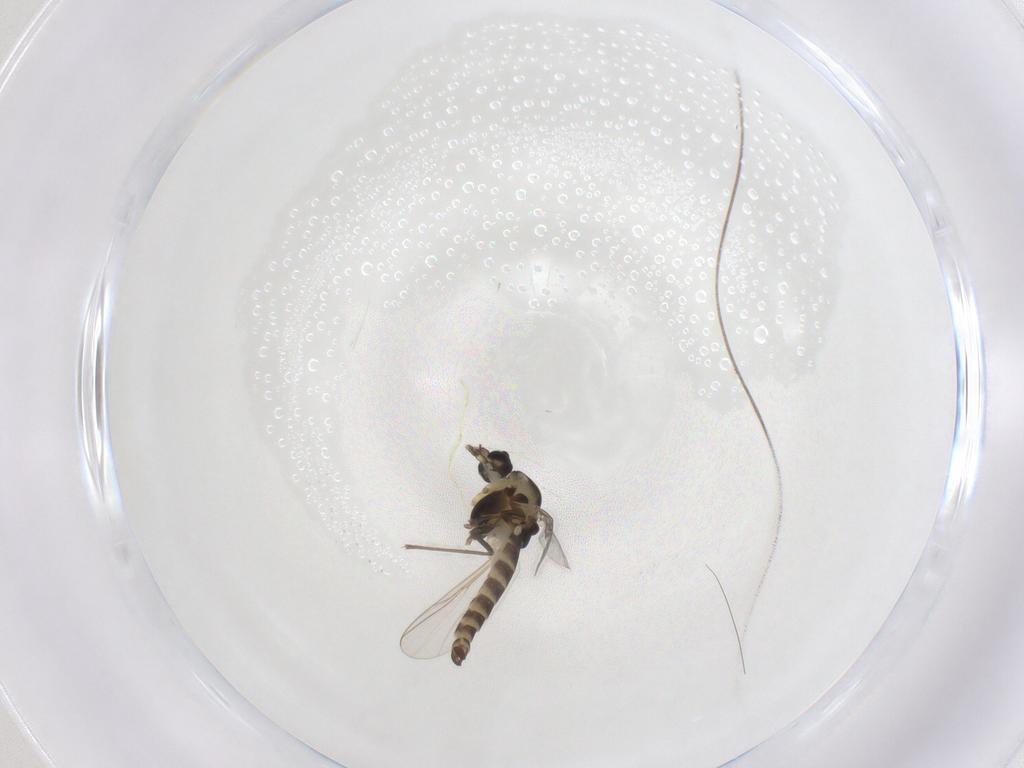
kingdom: Animalia
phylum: Arthropoda
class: Insecta
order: Diptera
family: Chironomidae
